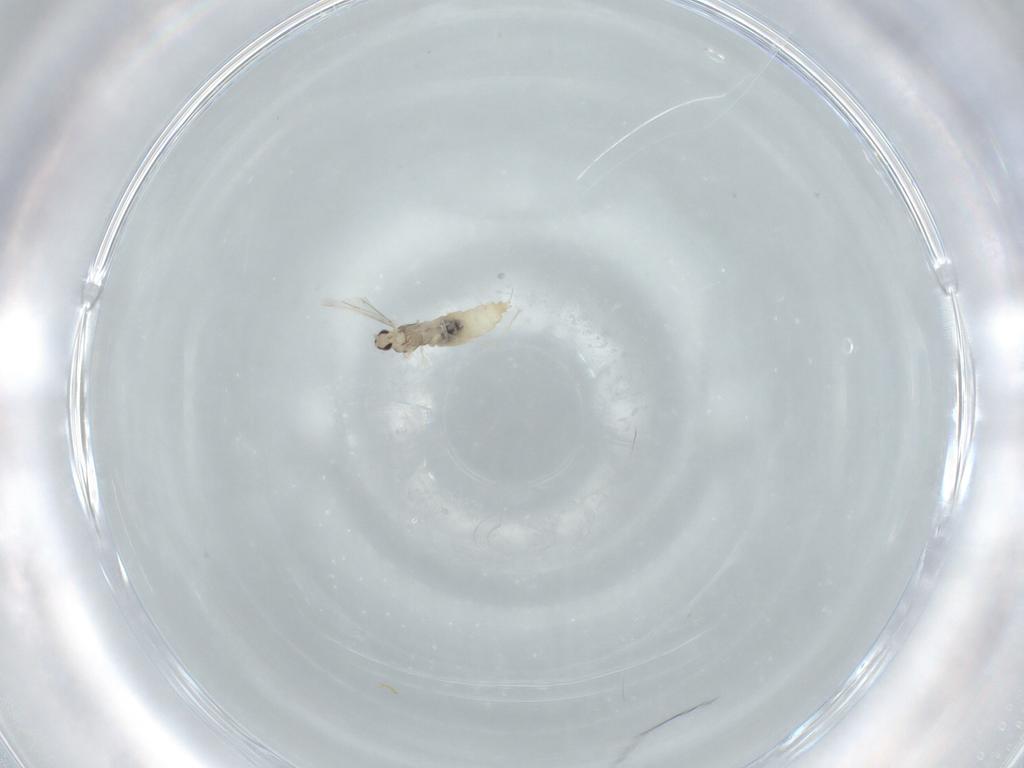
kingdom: Animalia
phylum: Arthropoda
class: Insecta
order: Diptera
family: Cecidomyiidae
